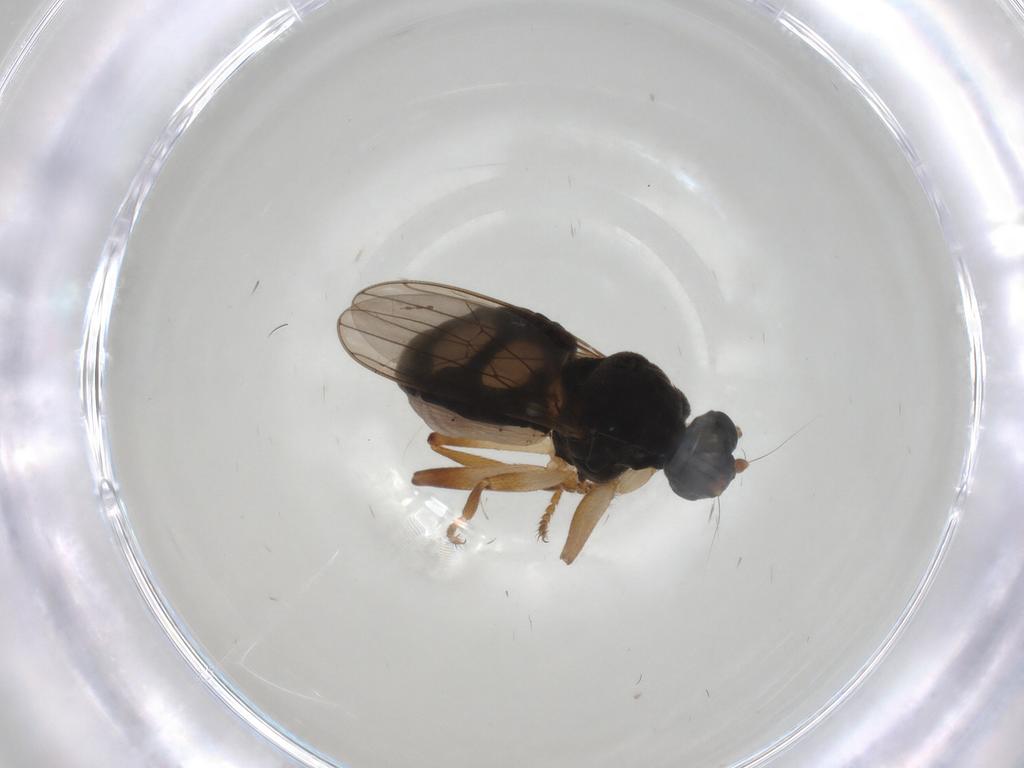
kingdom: Animalia
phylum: Arthropoda
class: Insecta
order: Diptera
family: Sphaeroceridae
